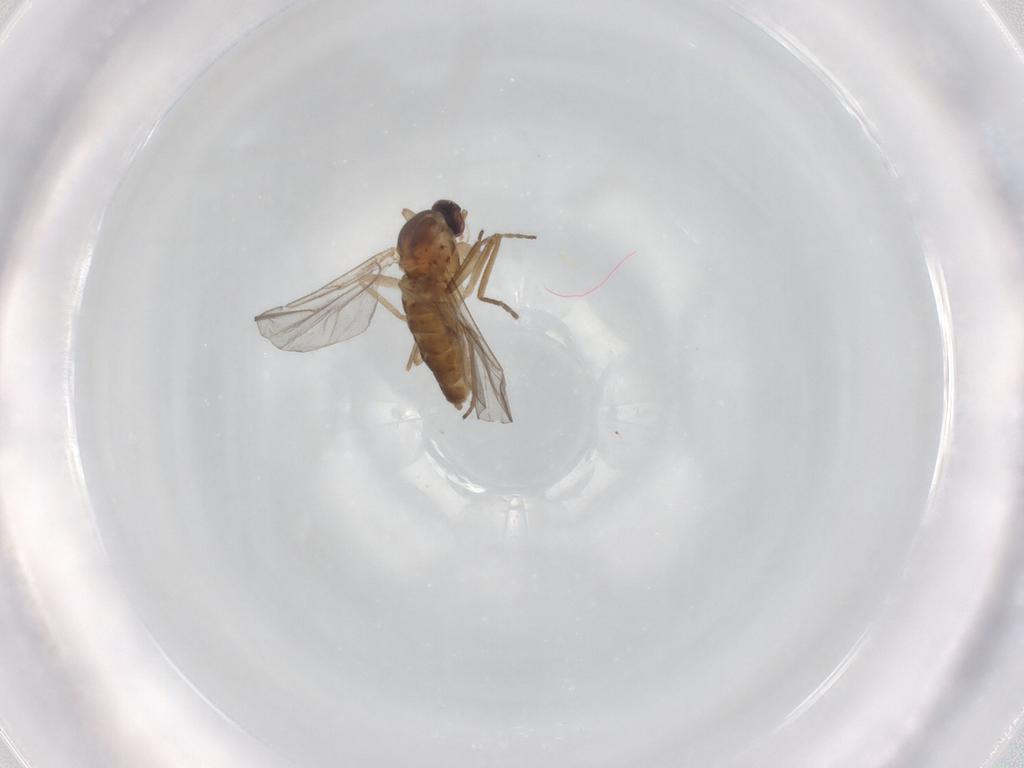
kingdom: Animalia
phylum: Arthropoda
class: Insecta
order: Diptera
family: Cecidomyiidae
